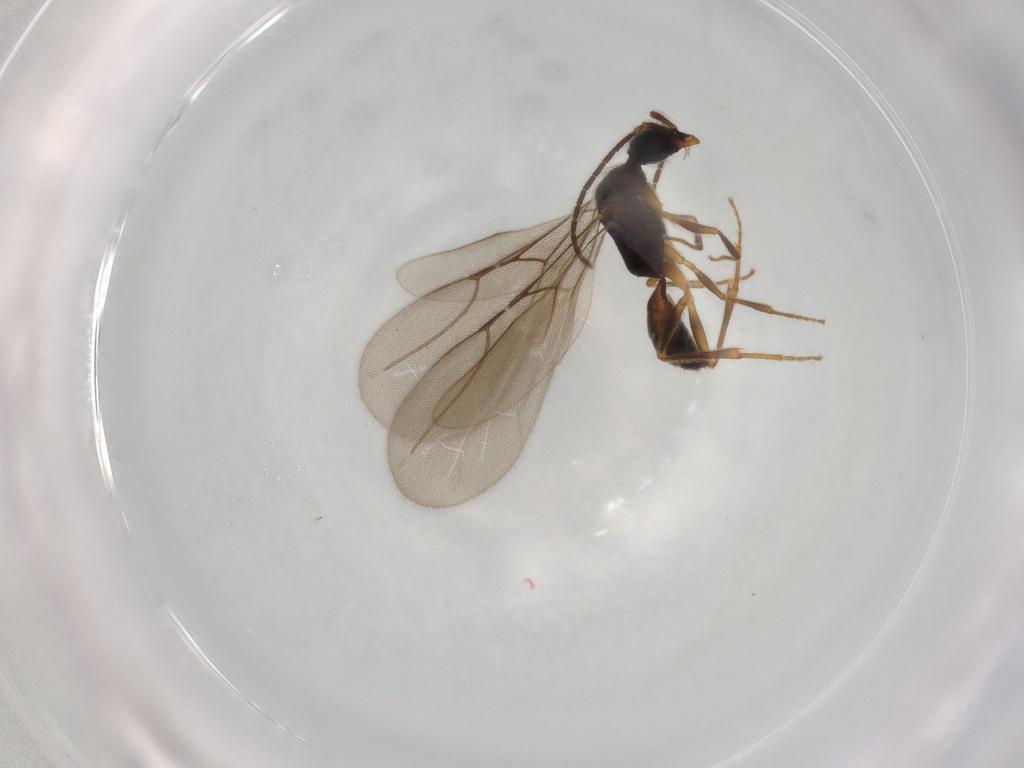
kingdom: Animalia
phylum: Arthropoda
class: Insecta
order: Hymenoptera
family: Bethylidae
